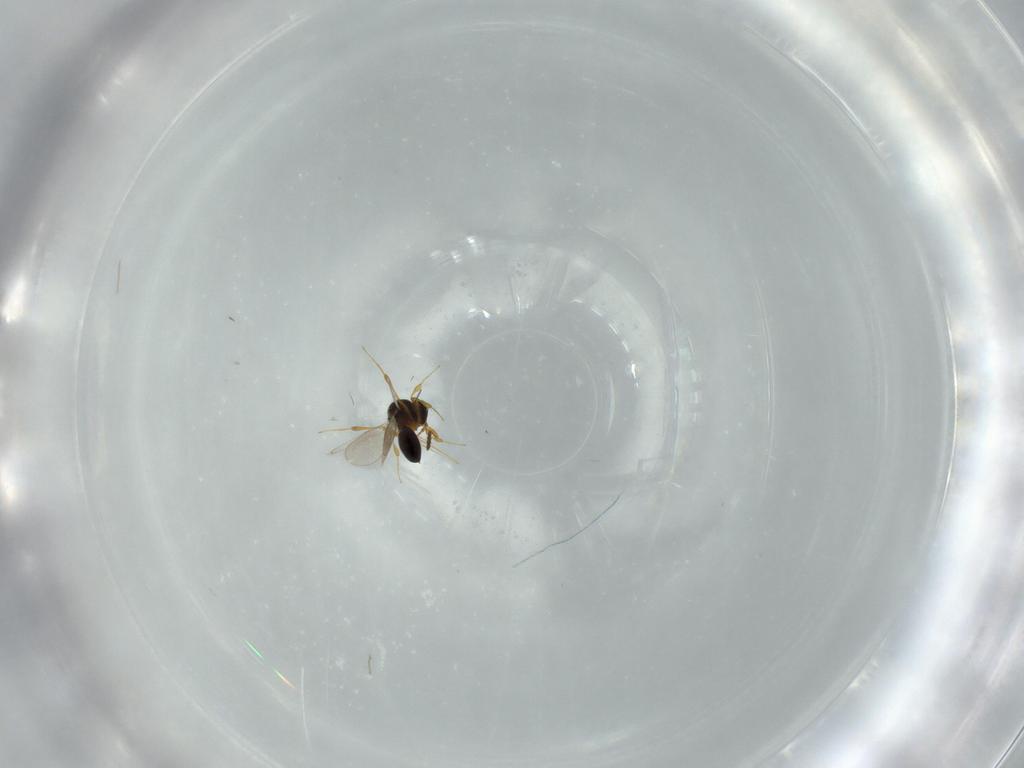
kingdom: Animalia
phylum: Arthropoda
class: Insecta
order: Hymenoptera
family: Platygastridae
